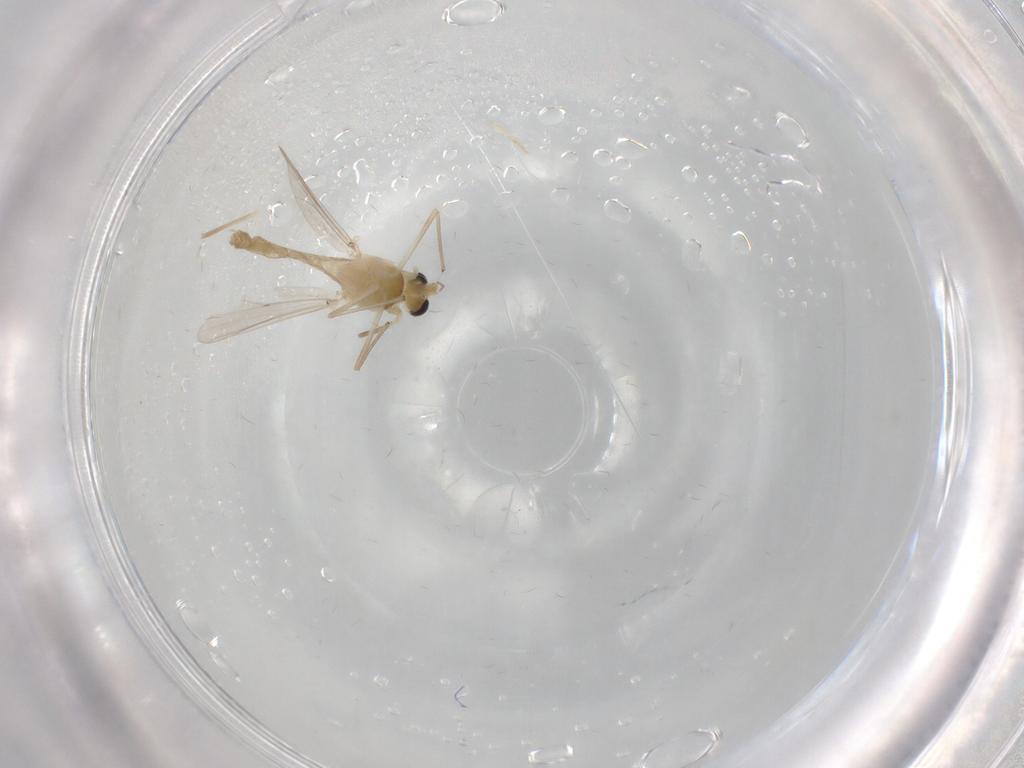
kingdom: Animalia
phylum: Arthropoda
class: Insecta
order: Diptera
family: Chironomidae
